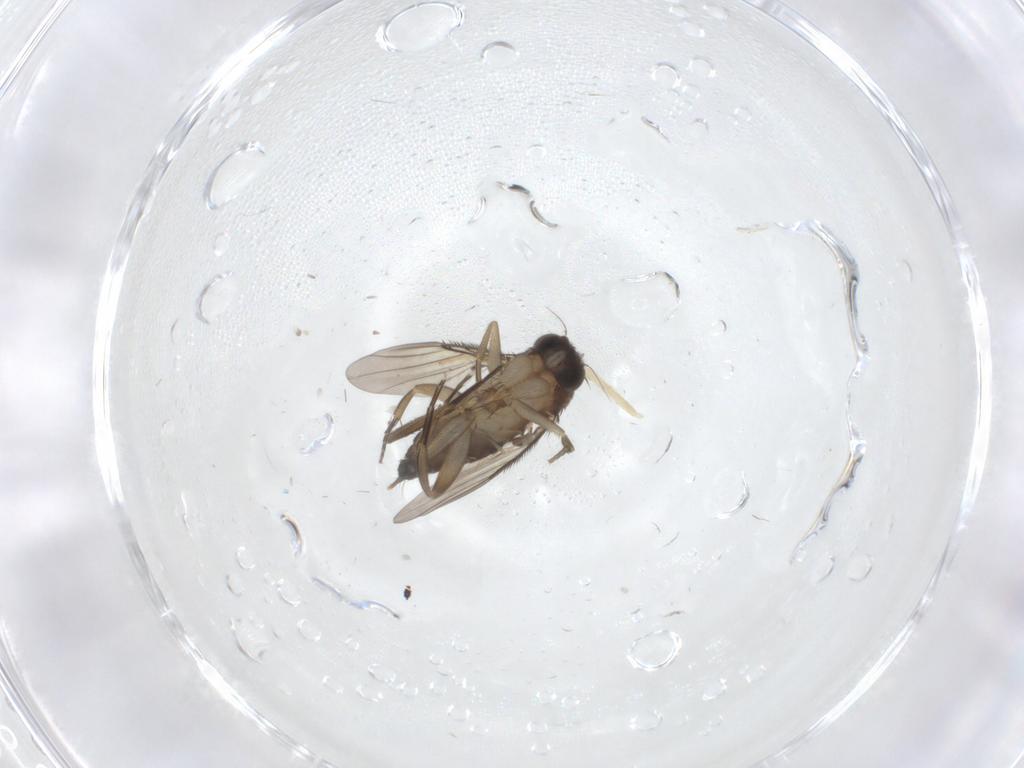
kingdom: Animalia
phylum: Arthropoda
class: Insecta
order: Diptera
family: Phoridae
